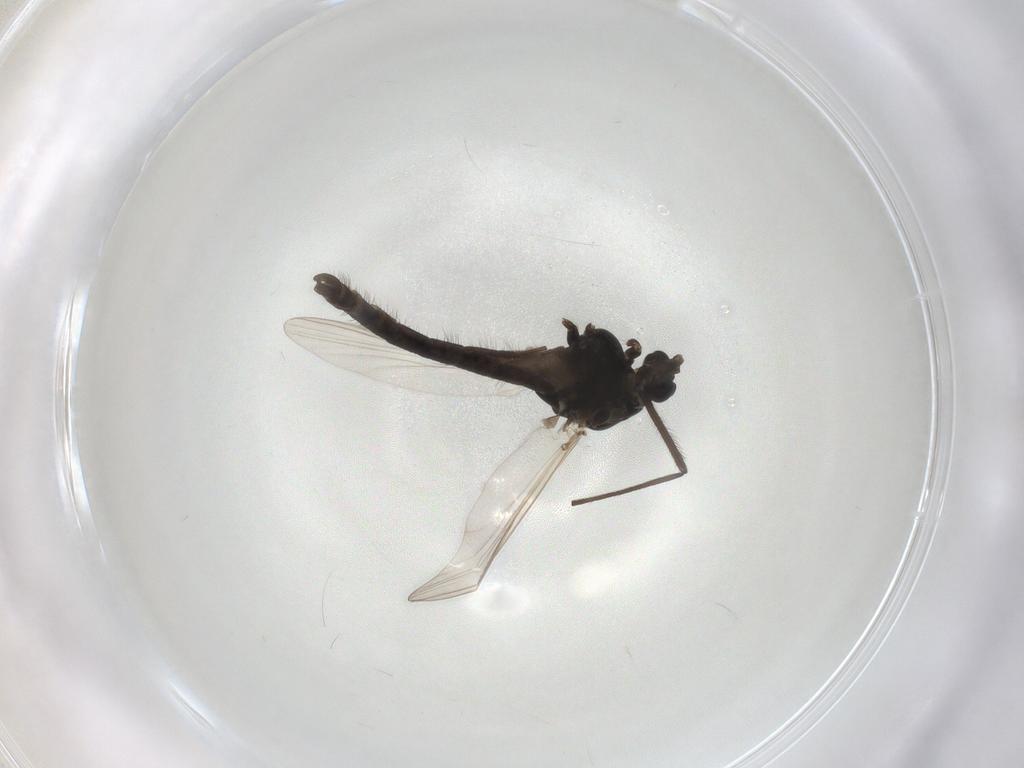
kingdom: Animalia
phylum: Arthropoda
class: Insecta
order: Diptera
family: Chironomidae
